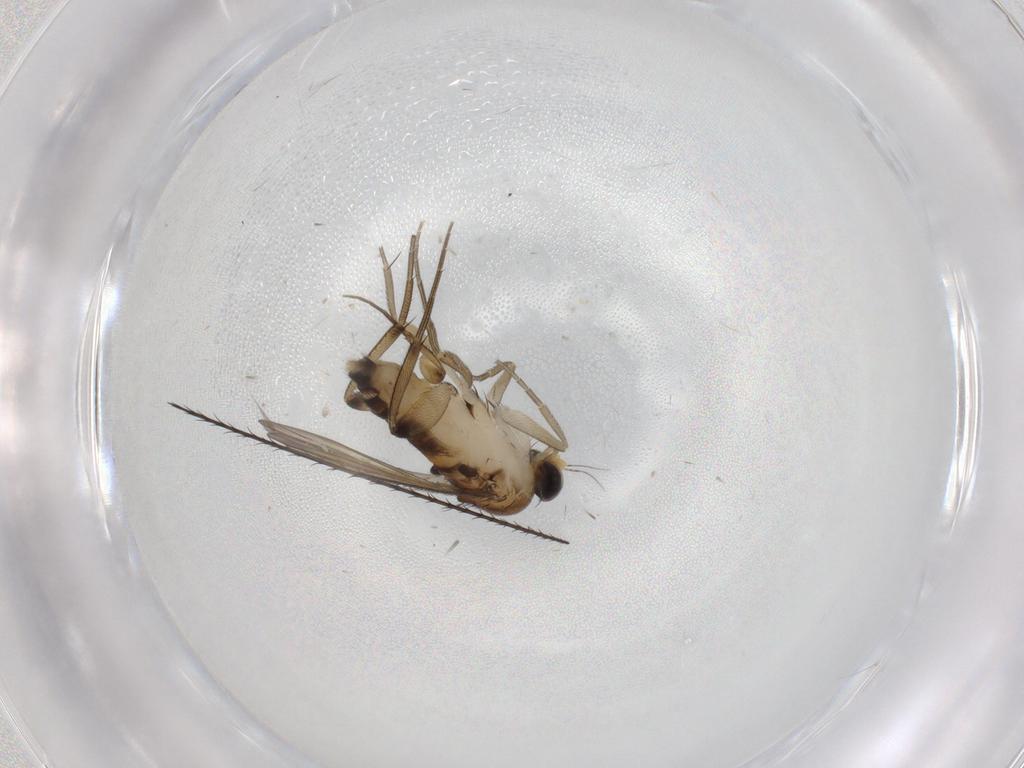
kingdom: Animalia
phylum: Arthropoda
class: Insecta
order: Diptera
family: Phoridae
